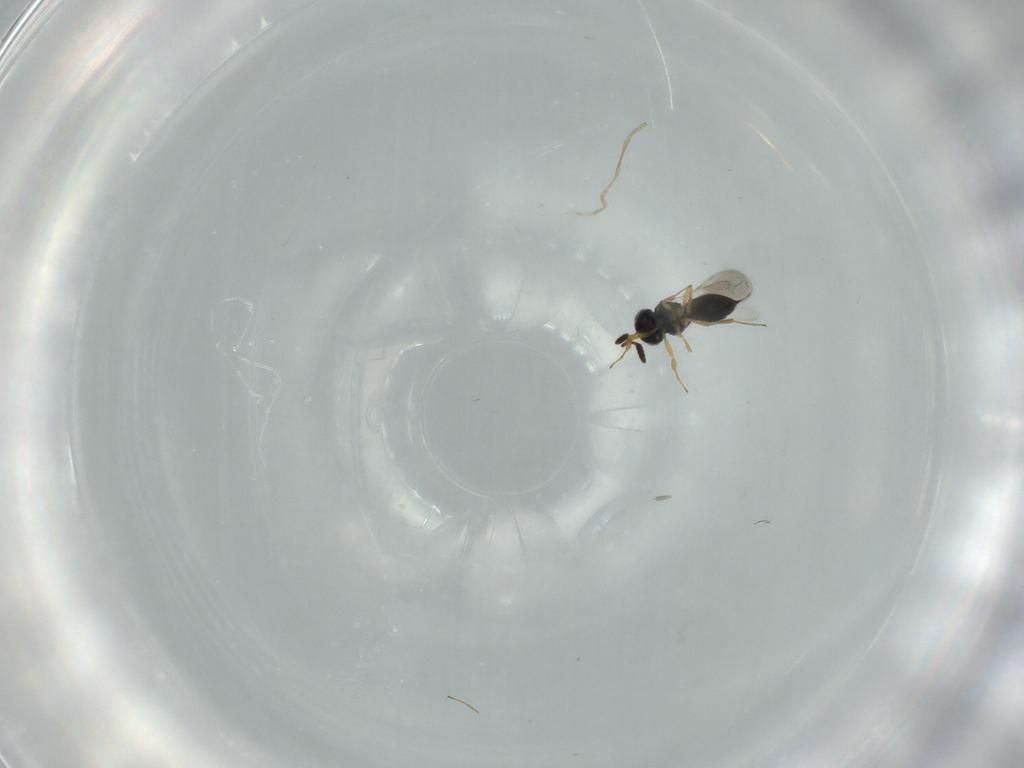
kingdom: Animalia
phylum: Arthropoda
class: Insecta
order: Hymenoptera
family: Scelionidae
